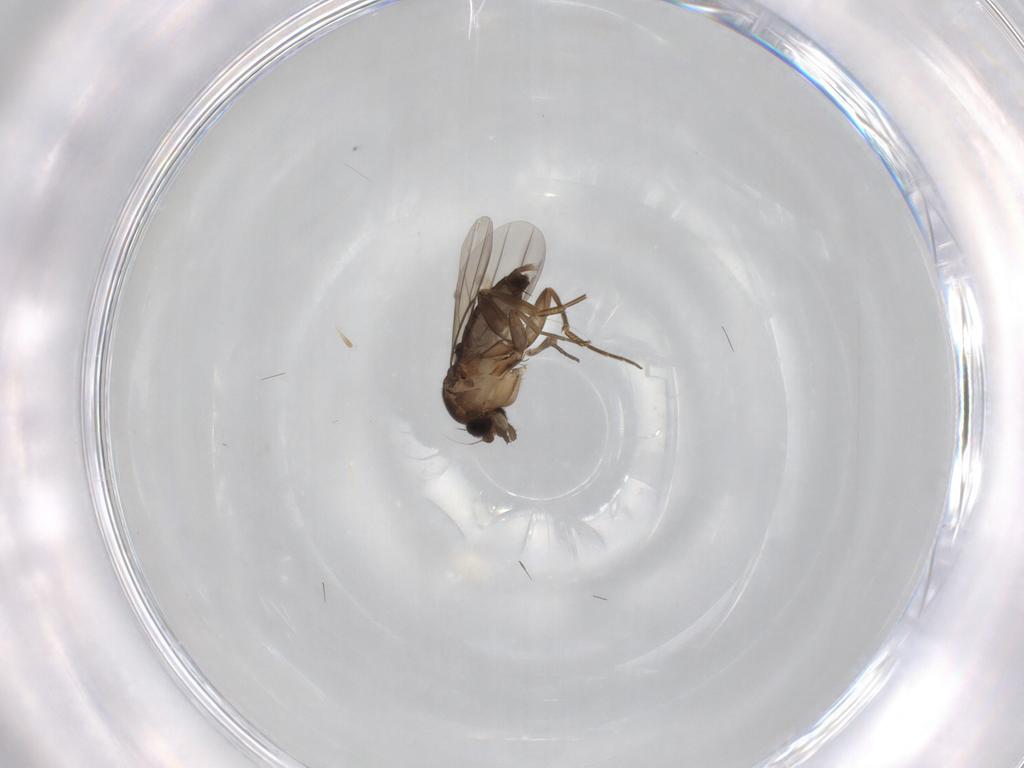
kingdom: Animalia
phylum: Arthropoda
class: Insecta
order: Diptera
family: Phoridae
